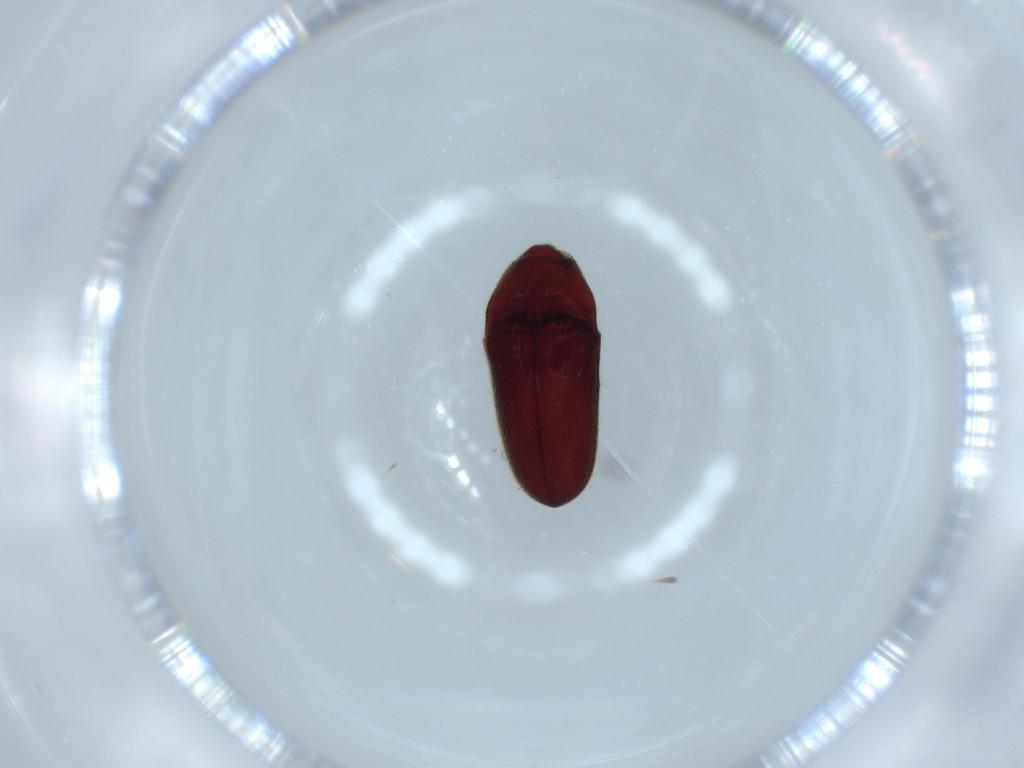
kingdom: Animalia
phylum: Arthropoda
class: Insecta
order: Coleoptera
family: Throscidae
